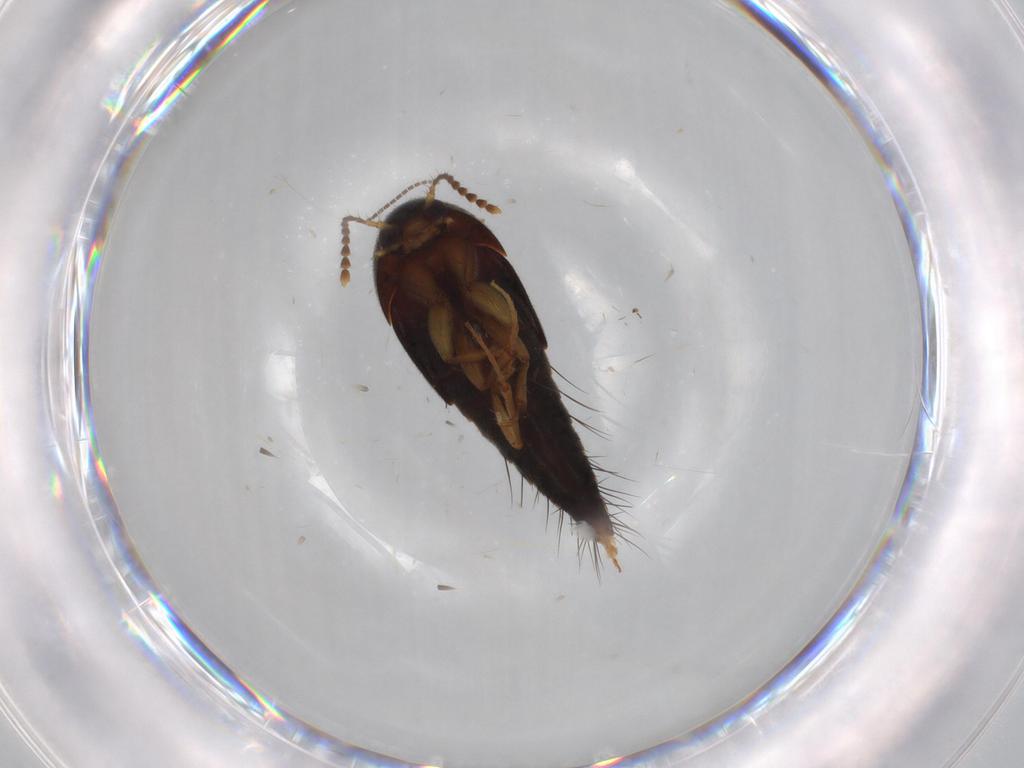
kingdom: Animalia
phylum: Arthropoda
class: Insecta
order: Coleoptera
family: Staphylinidae
